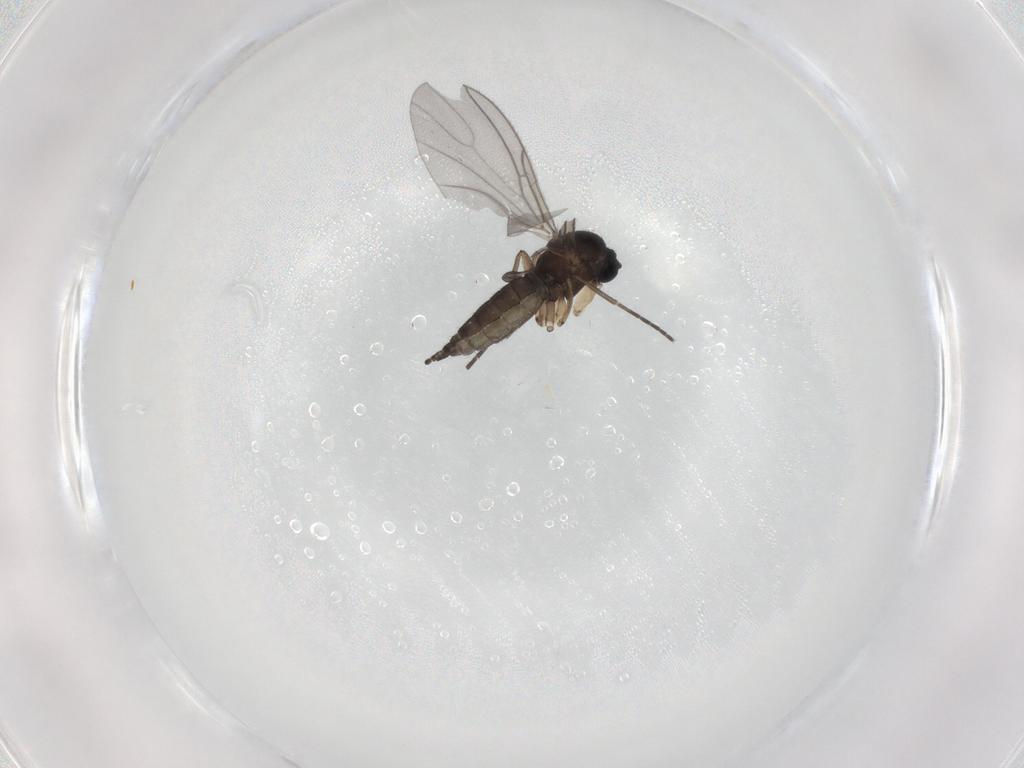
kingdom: Animalia
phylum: Arthropoda
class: Insecta
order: Diptera
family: Sciaridae
